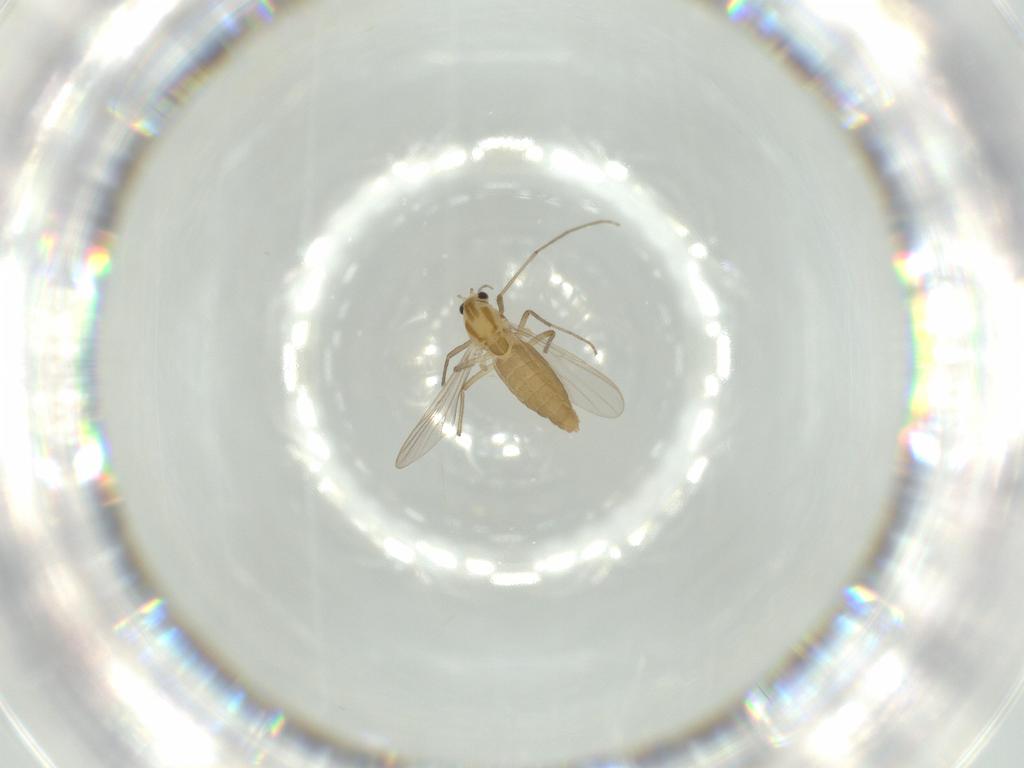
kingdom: Animalia
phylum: Arthropoda
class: Insecta
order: Diptera
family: Chironomidae
